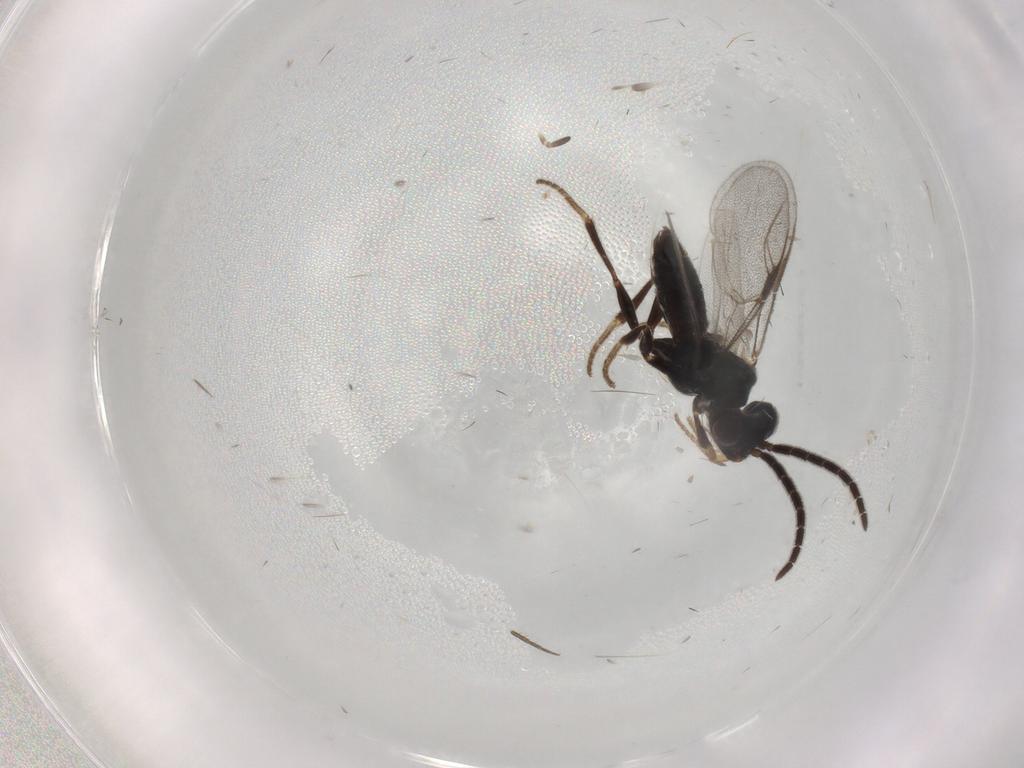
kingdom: Animalia
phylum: Arthropoda
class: Insecta
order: Hymenoptera
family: Dryinidae
